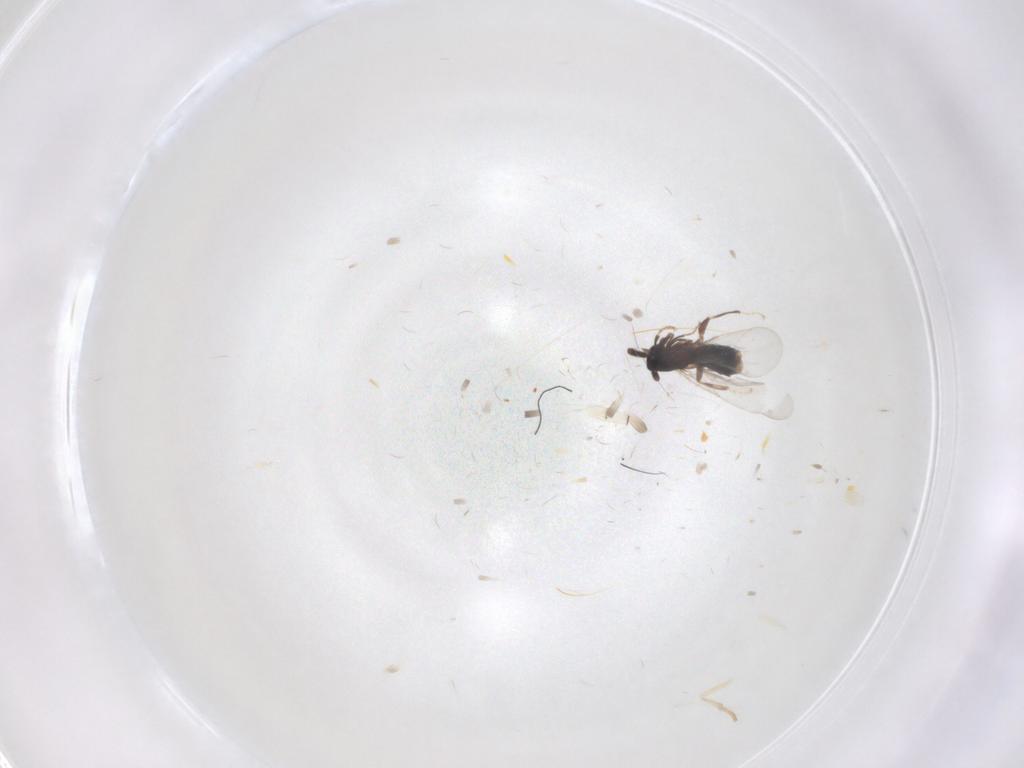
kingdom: Animalia
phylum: Arthropoda
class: Insecta
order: Diptera
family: Scatopsidae
